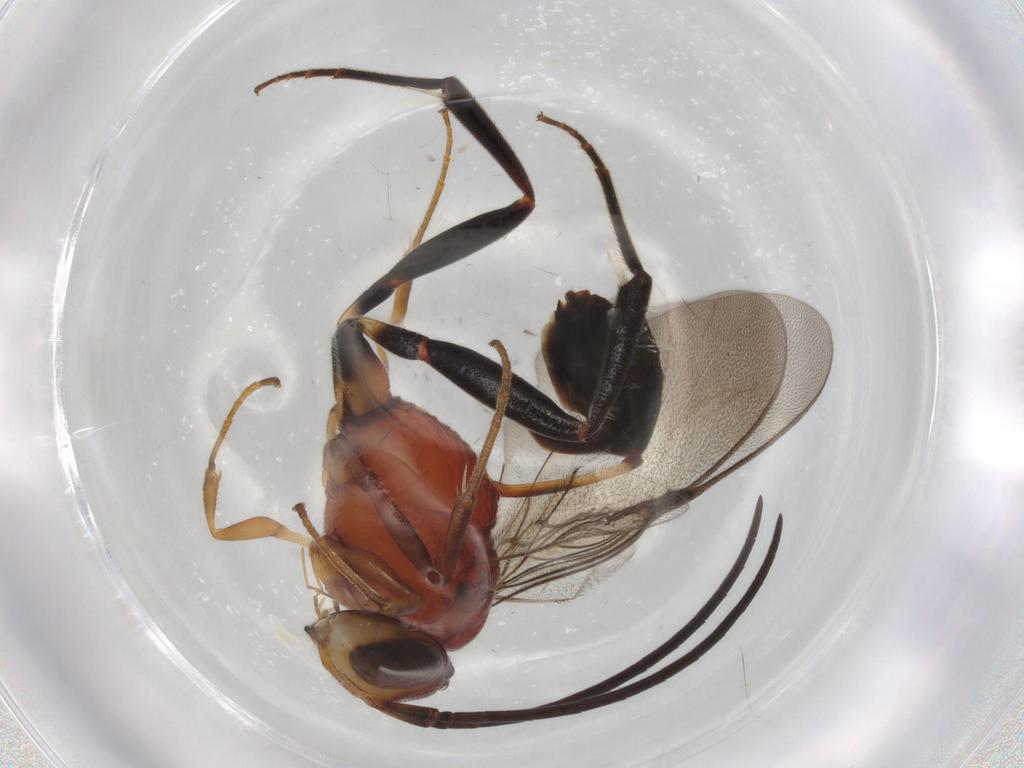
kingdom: Animalia
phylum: Arthropoda
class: Insecta
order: Hymenoptera
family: Evaniidae
